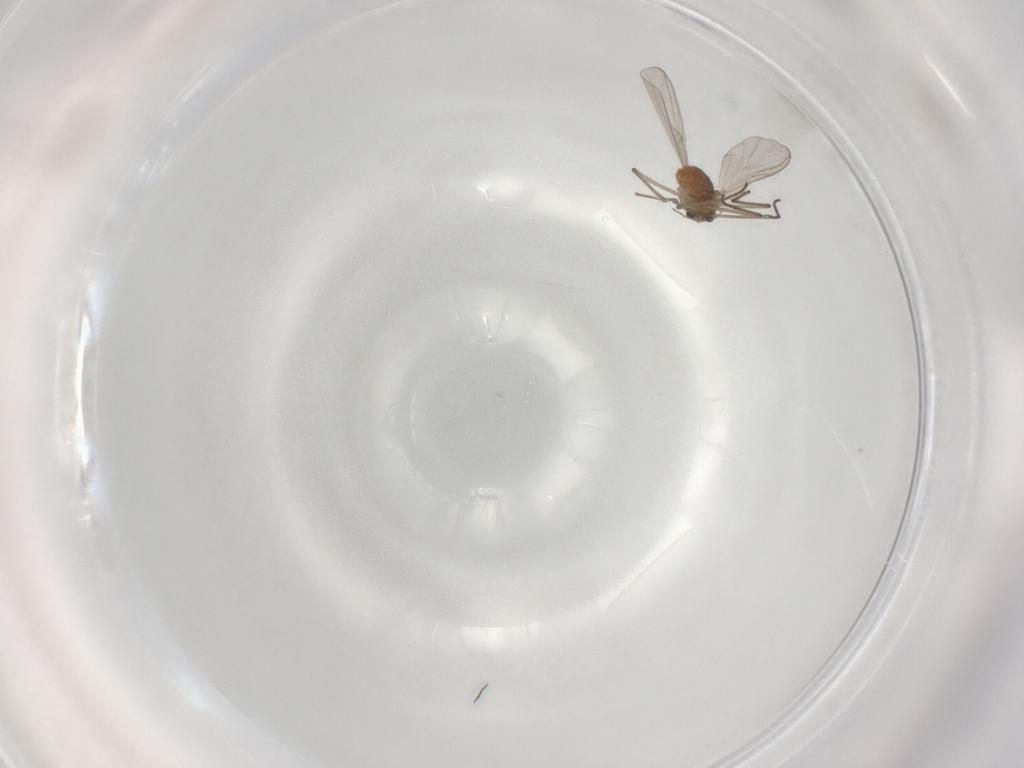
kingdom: Animalia
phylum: Arthropoda
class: Insecta
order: Diptera
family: Chironomidae
